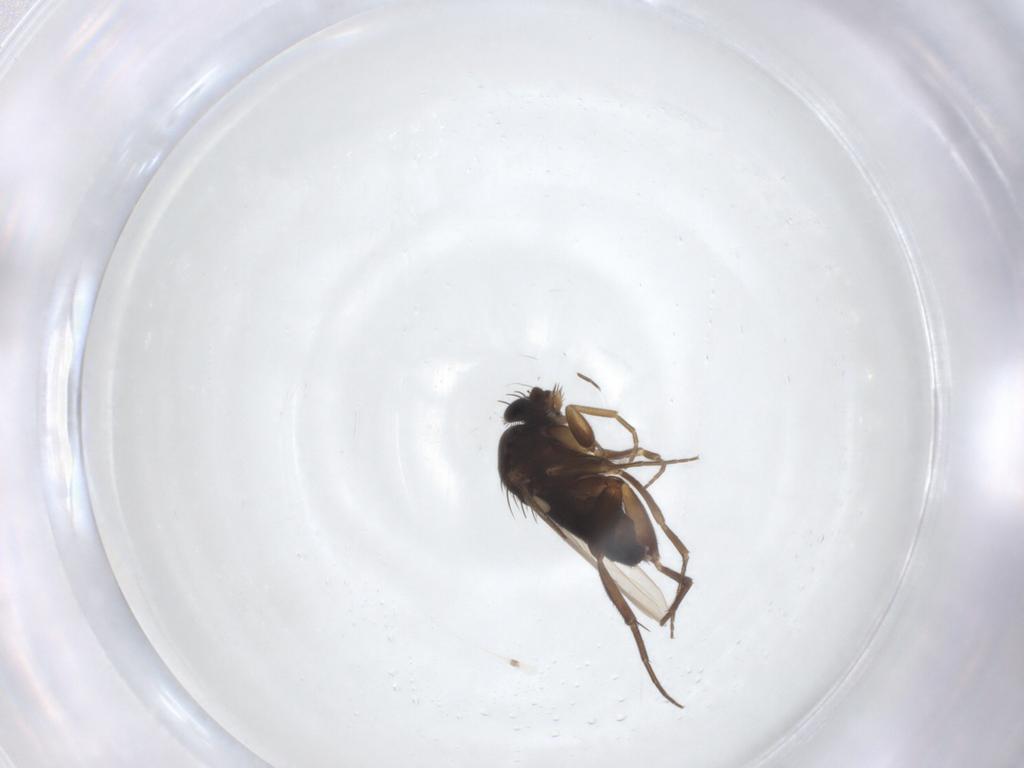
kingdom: Animalia
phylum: Arthropoda
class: Insecta
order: Diptera
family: Phoridae
